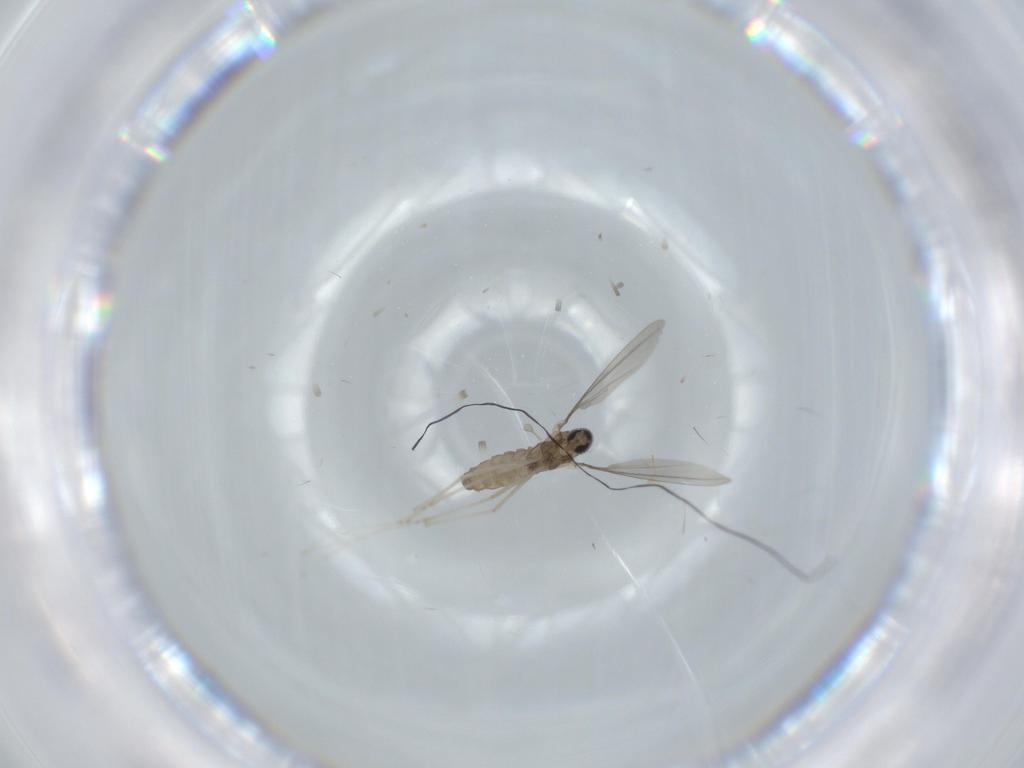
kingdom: Animalia
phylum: Arthropoda
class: Insecta
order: Diptera
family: Cecidomyiidae
